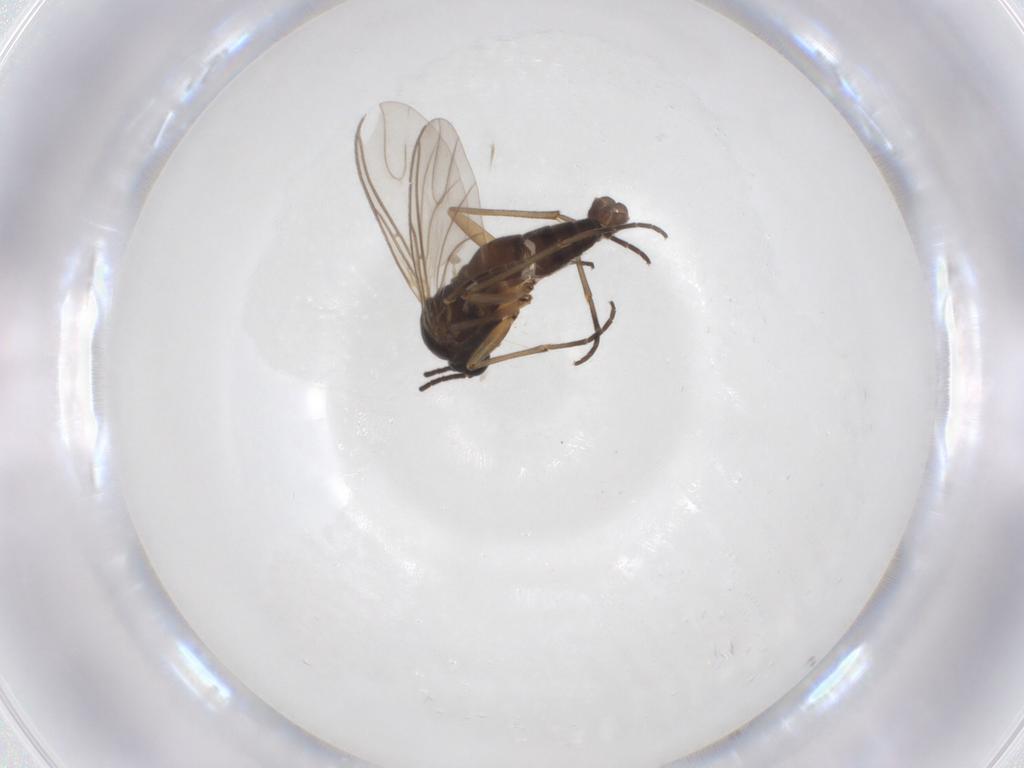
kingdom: Animalia
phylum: Arthropoda
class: Insecta
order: Diptera
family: Sciaridae
